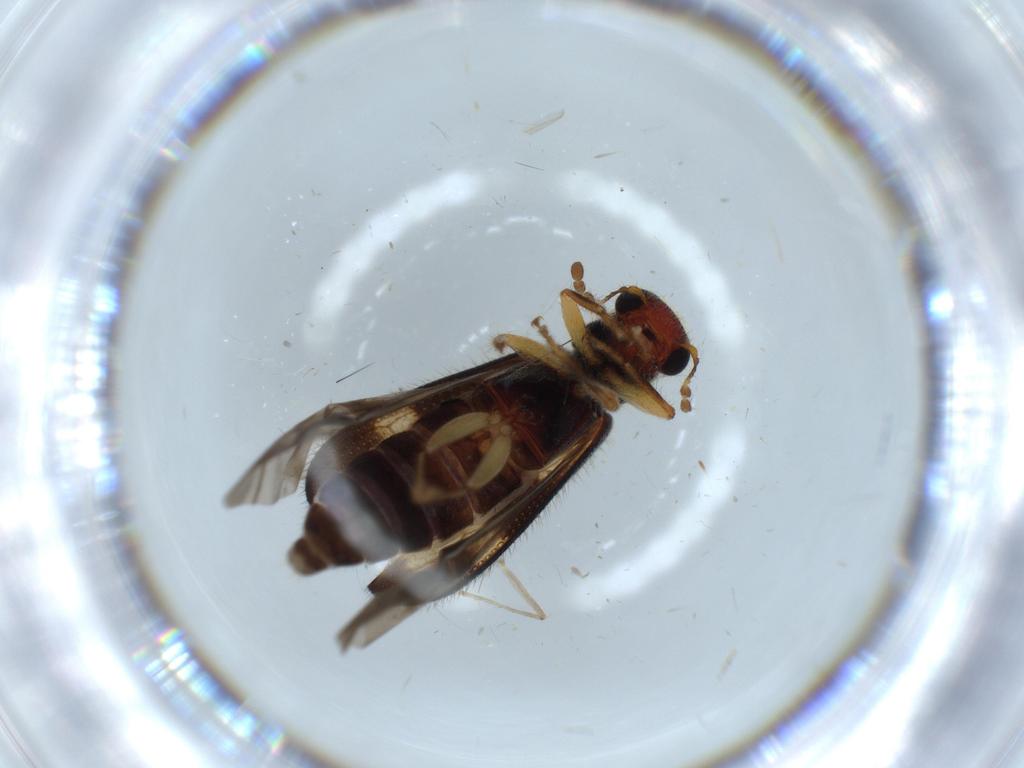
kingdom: Animalia
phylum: Arthropoda
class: Insecta
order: Coleoptera
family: Cleridae
